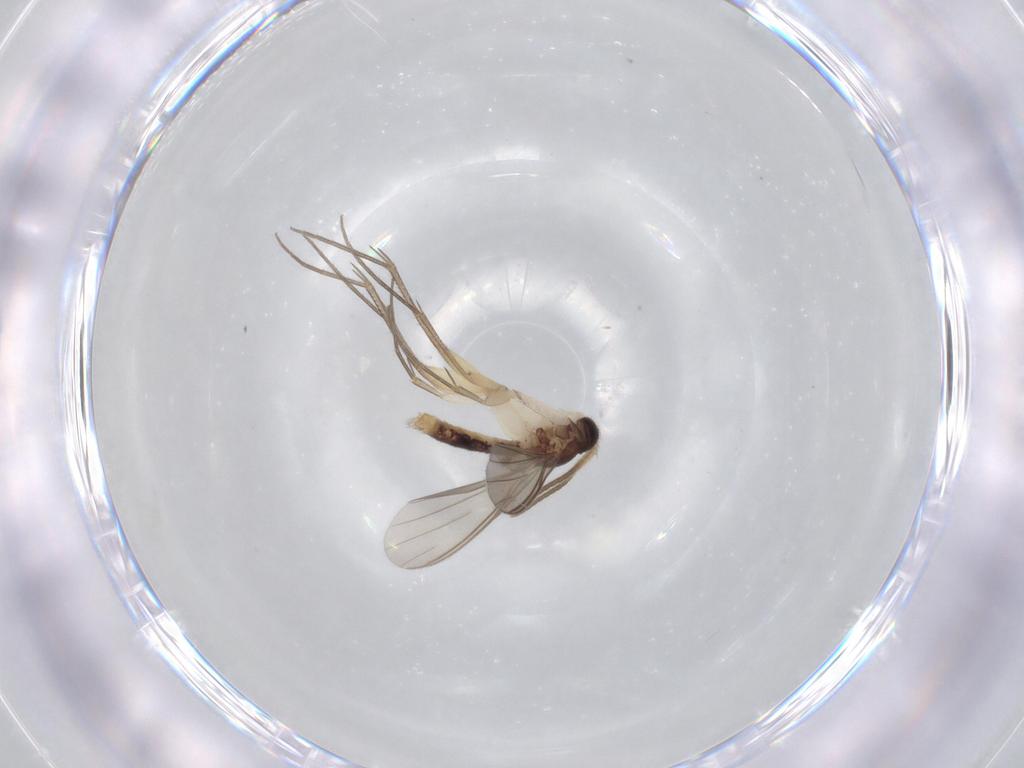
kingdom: Animalia
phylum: Arthropoda
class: Insecta
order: Diptera
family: Mycetophilidae
